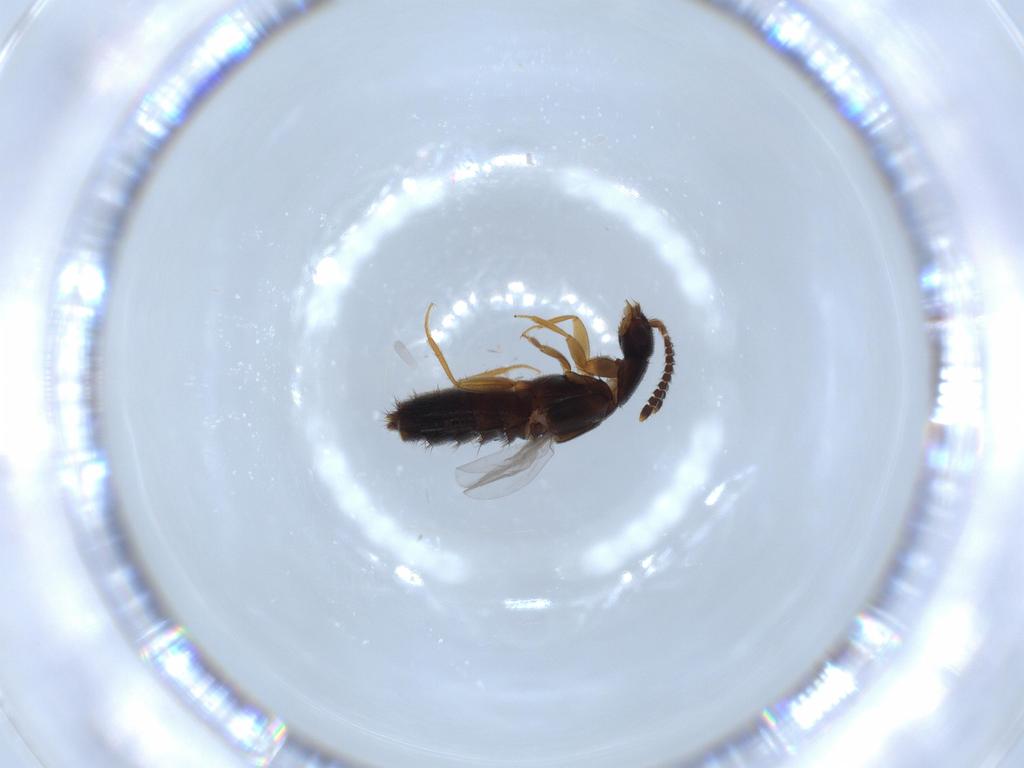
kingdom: Animalia
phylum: Arthropoda
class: Insecta
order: Coleoptera
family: Staphylinidae
